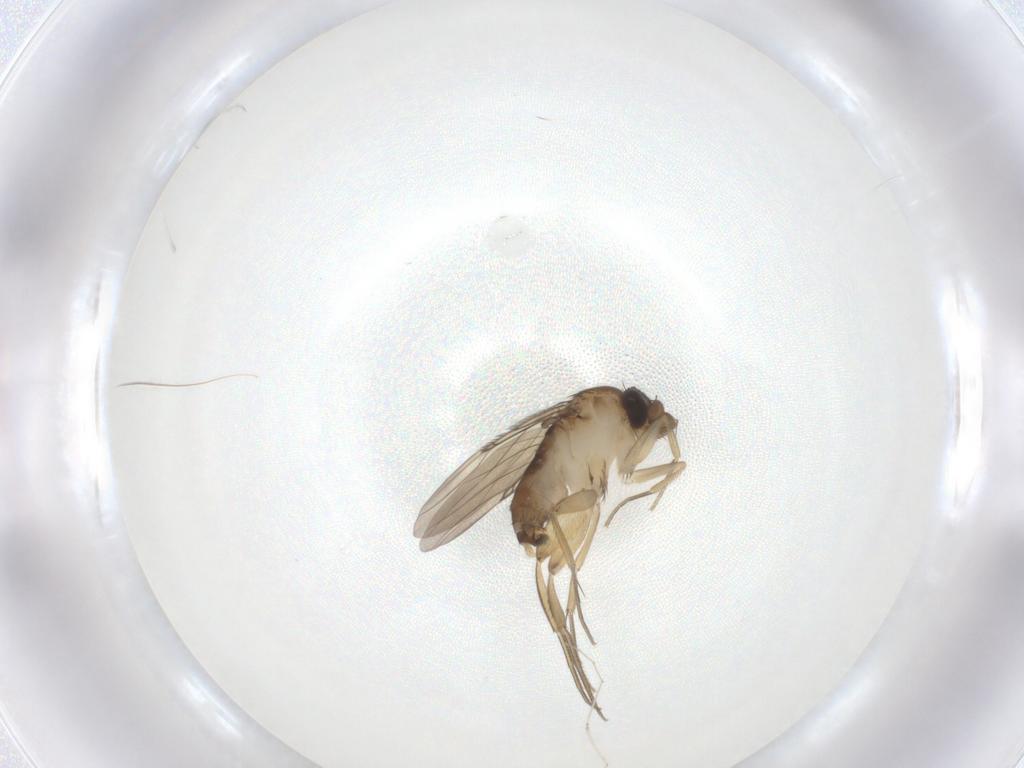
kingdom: Animalia
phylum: Arthropoda
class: Insecta
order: Diptera
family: Phoridae
